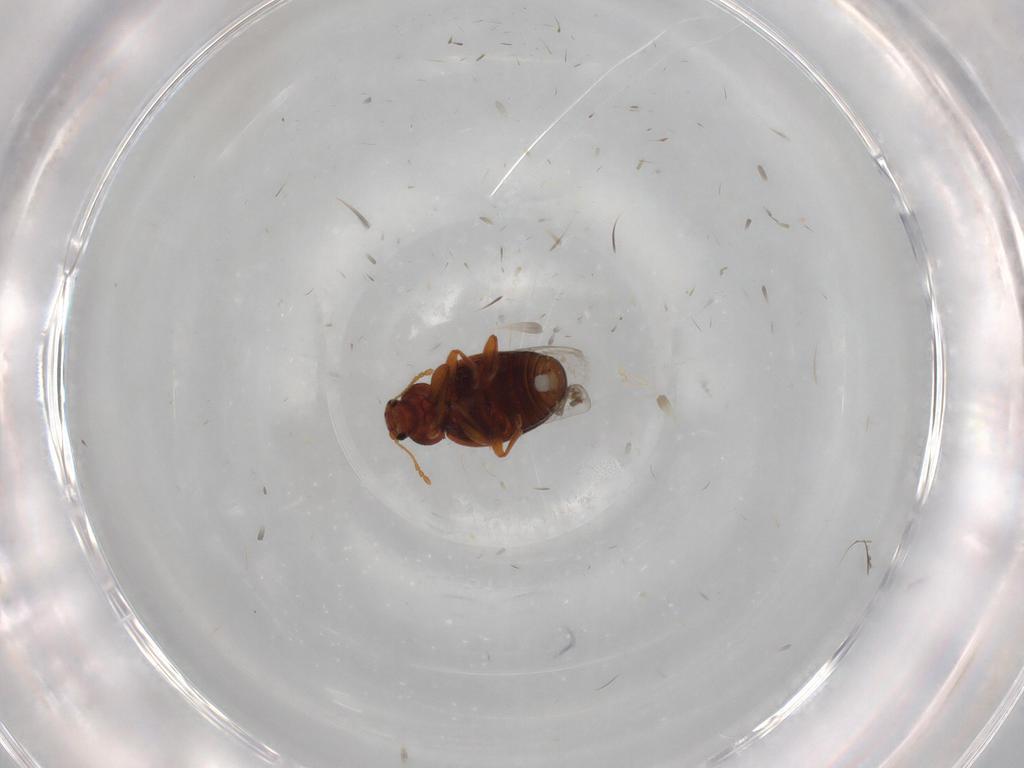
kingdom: Animalia
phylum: Arthropoda
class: Insecta
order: Coleoptera
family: Latridiidae
